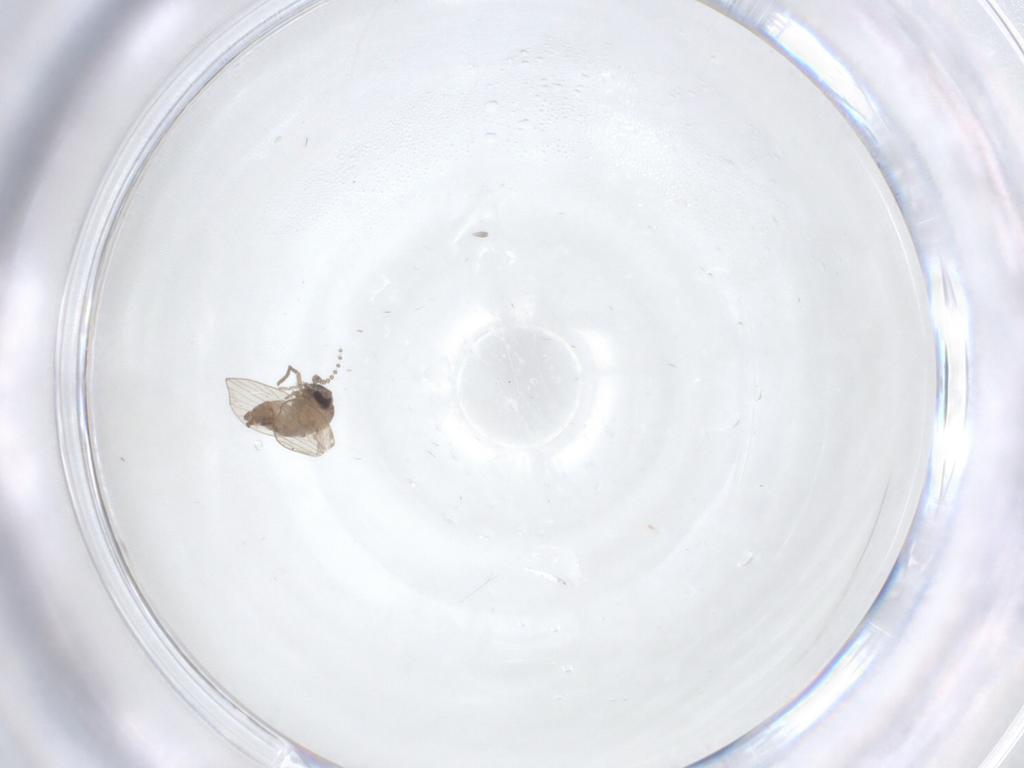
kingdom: Animalia
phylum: Arthropoda
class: Insecta
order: Diptera
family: Psychodidae
